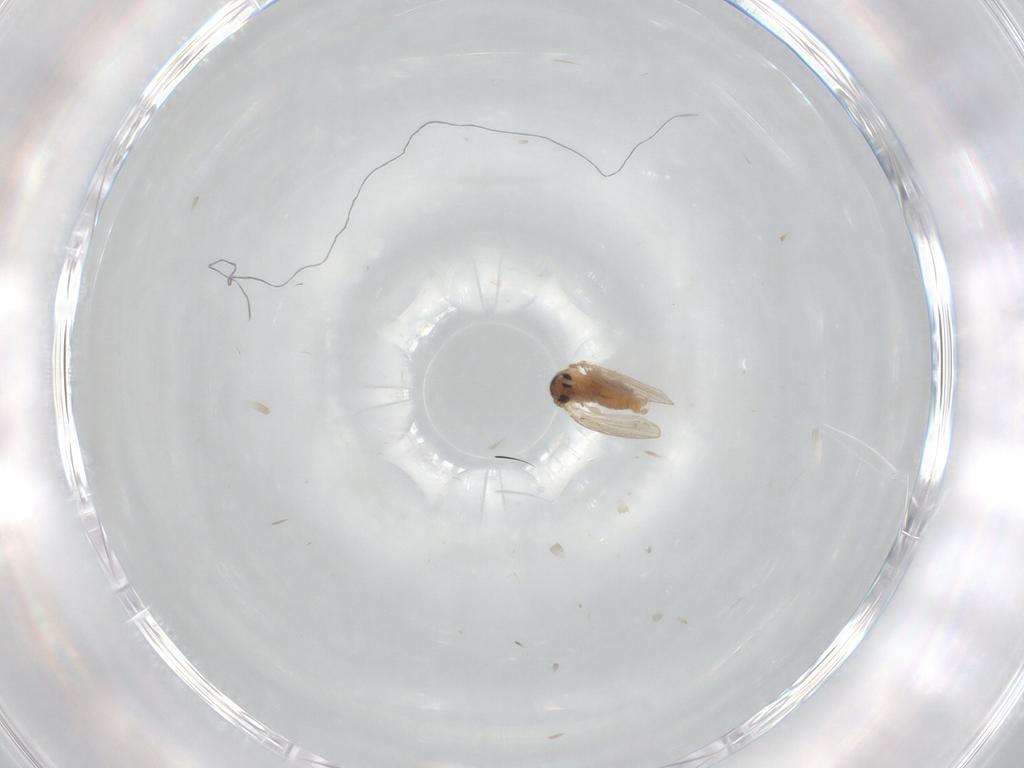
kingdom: Animalia
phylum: Arthropoda
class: Insecta
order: Diptera
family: Psychodidae
